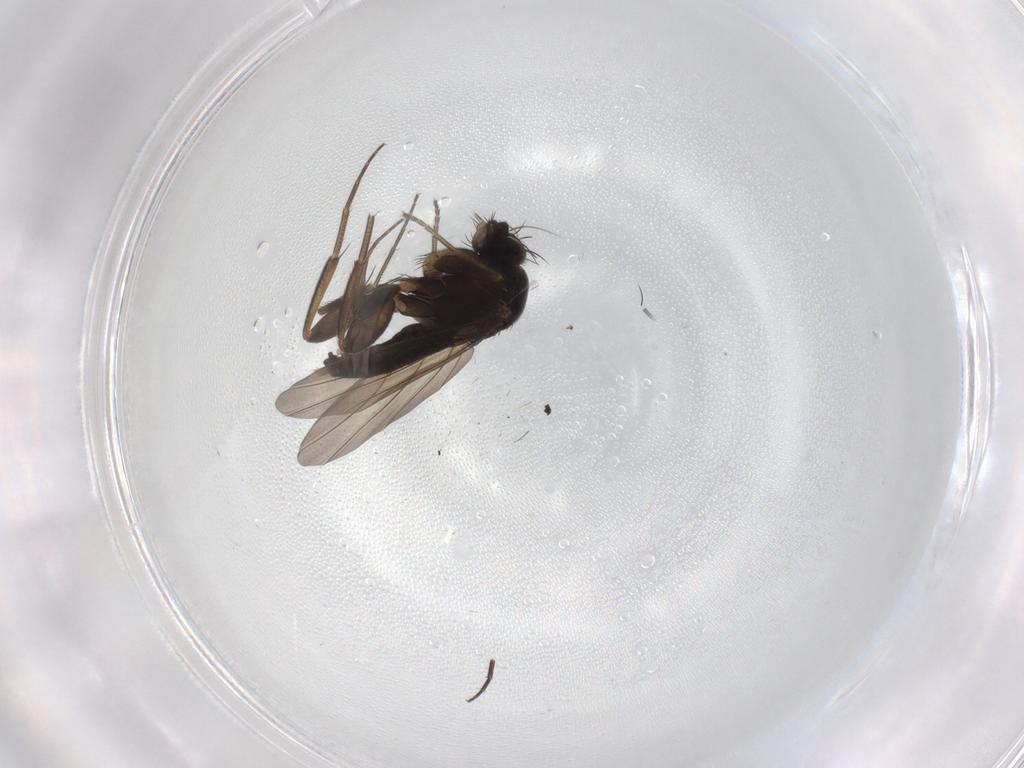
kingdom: Animalia
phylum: Arthropoda
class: Insecta
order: Diptera
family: Phoridae
